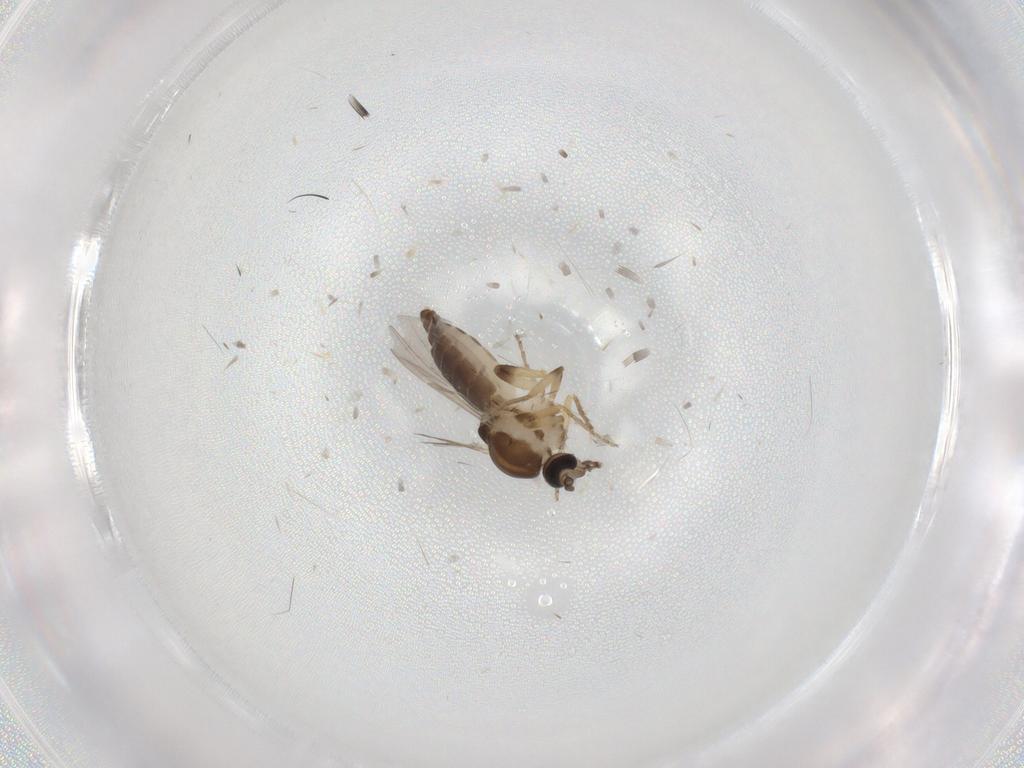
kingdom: Animalia
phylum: Arthropoda
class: Insecta
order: Diptera
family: Ceratopogonidae
